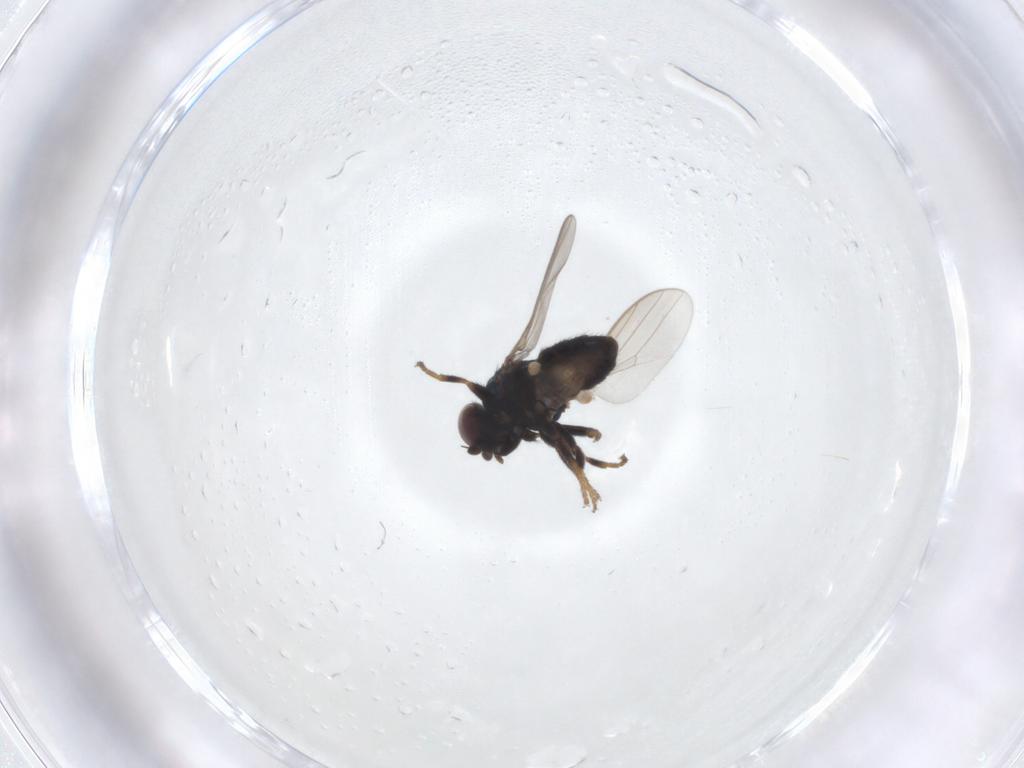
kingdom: Animalia
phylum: Arthropoda
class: Insecta
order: Diptera
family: Chloropidae
